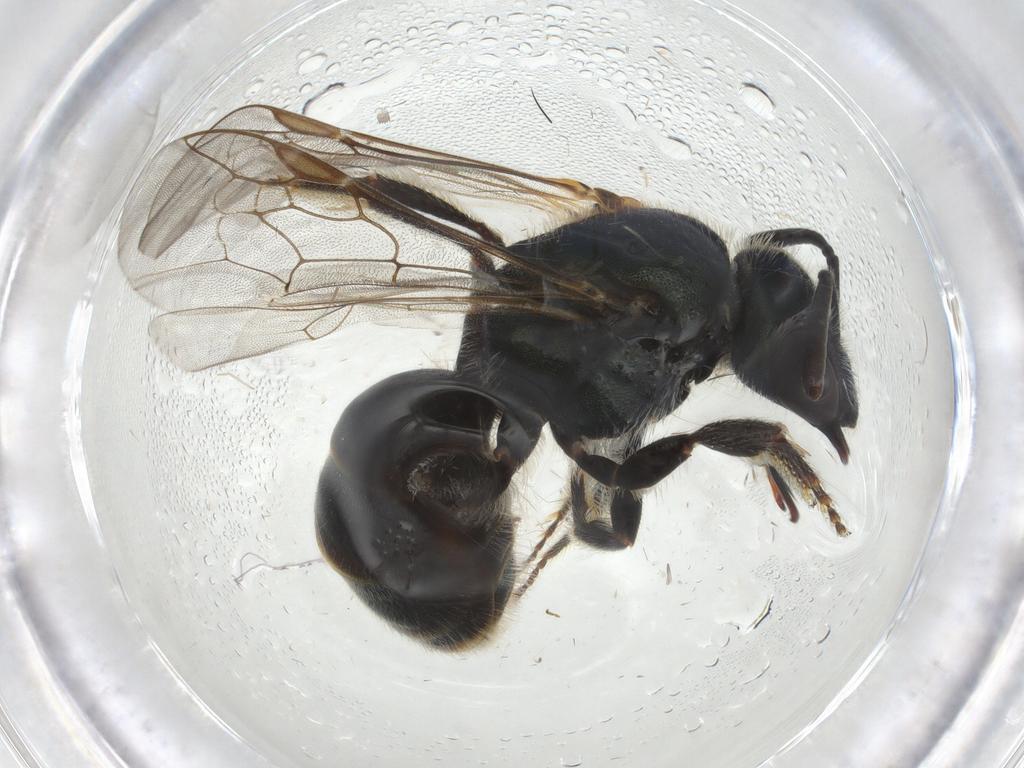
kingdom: Animalia
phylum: Arthropoda
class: Insecta
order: Hymenoptera
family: Halictidae
